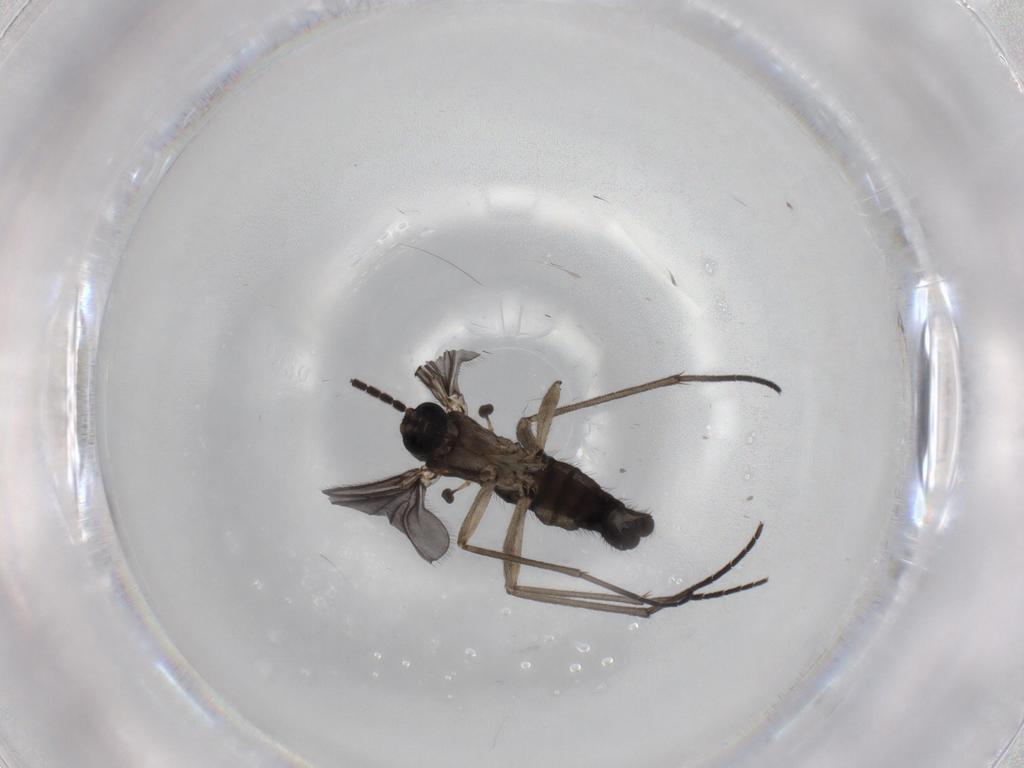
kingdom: Animalia
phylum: Arthropoda
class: Insecta
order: Diptera
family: Sciaridae
